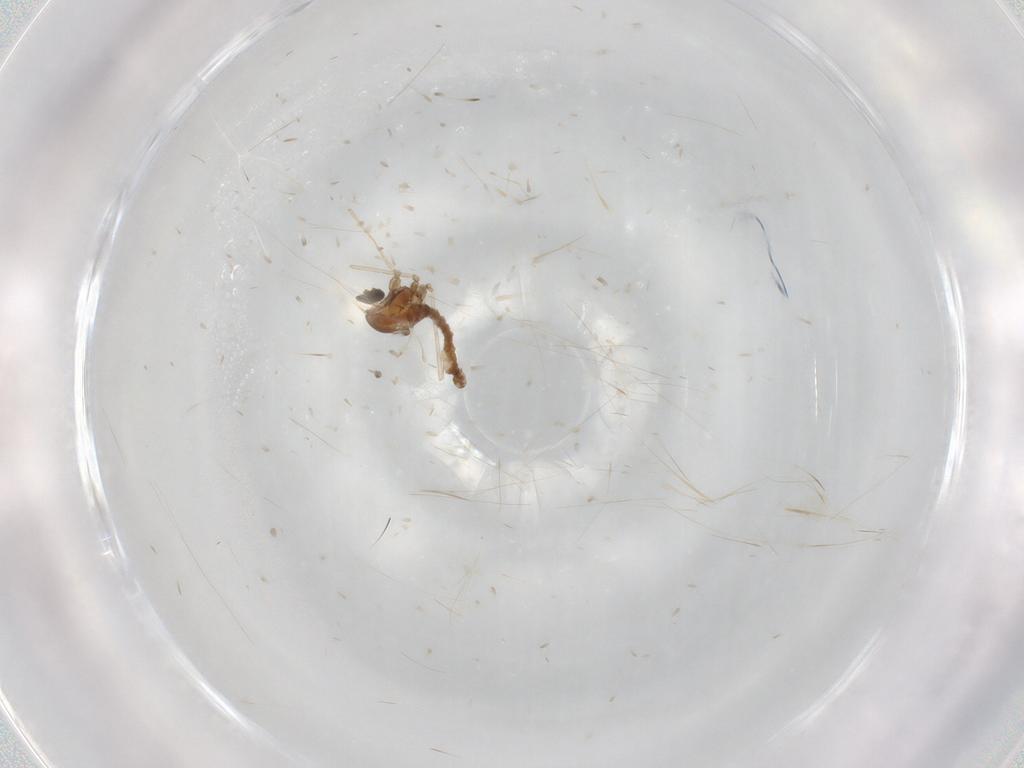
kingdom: Animalia
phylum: Arthropoda
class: Insecta
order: Diptera
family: Cecidomyiidae
